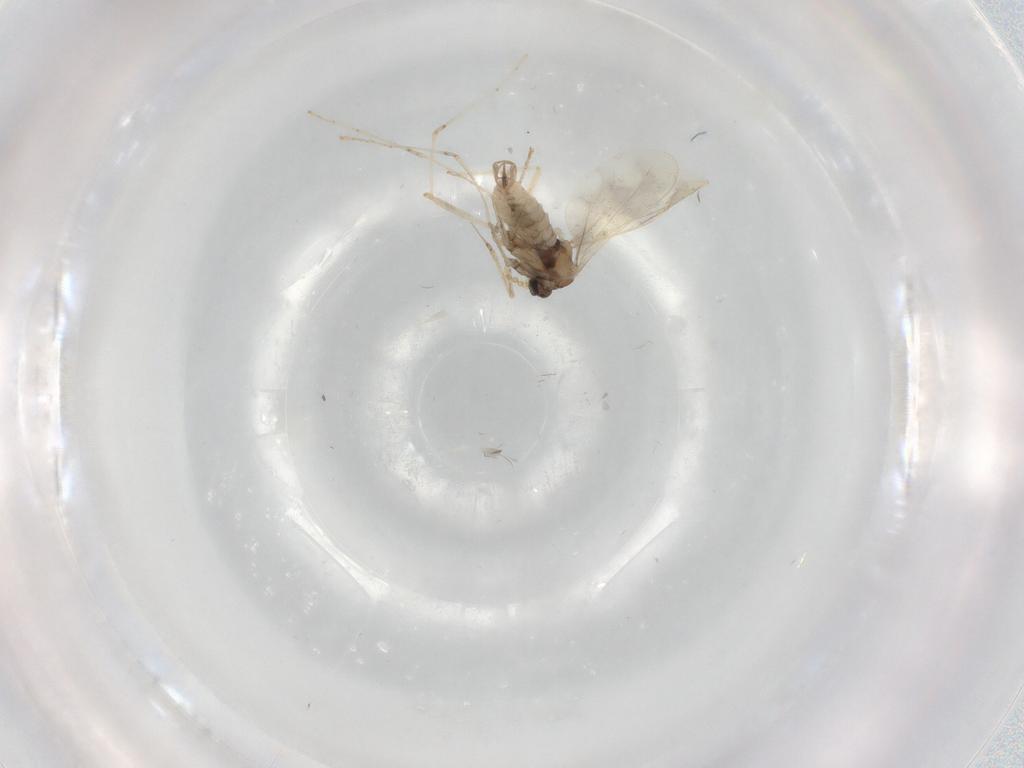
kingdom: Animalia
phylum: Arthropoda
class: Insecta
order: Diptera
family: Cecidomyiidae
